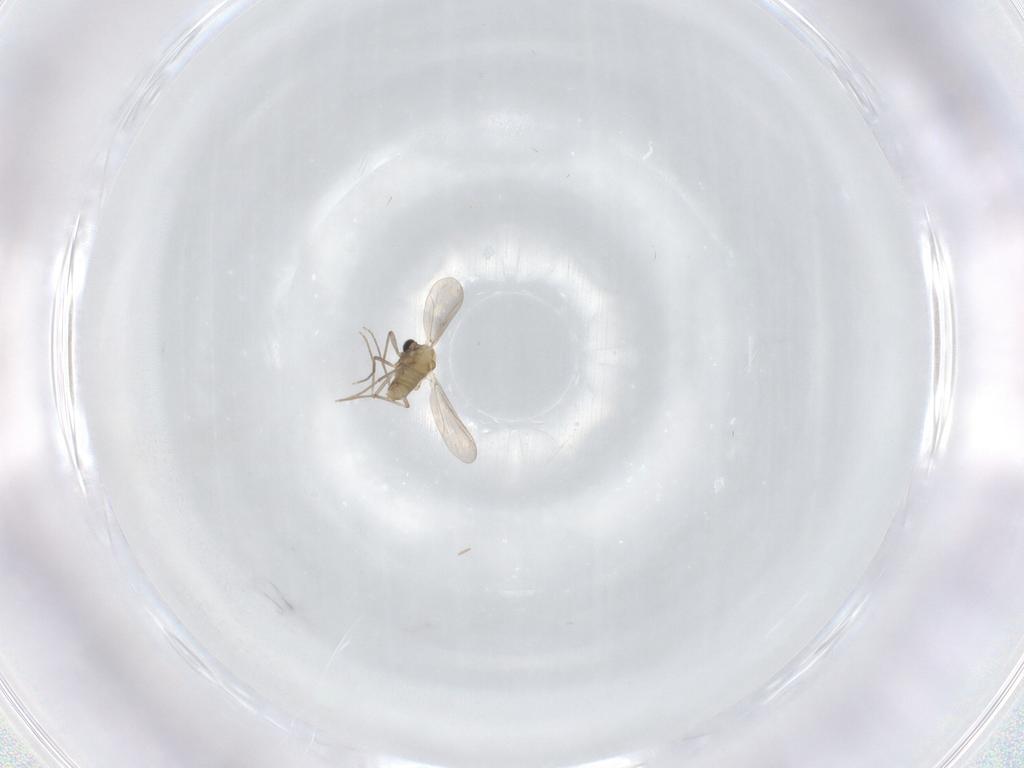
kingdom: Animalia
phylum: Arthropoda
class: Insecta
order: Diptera
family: Chironomidae
